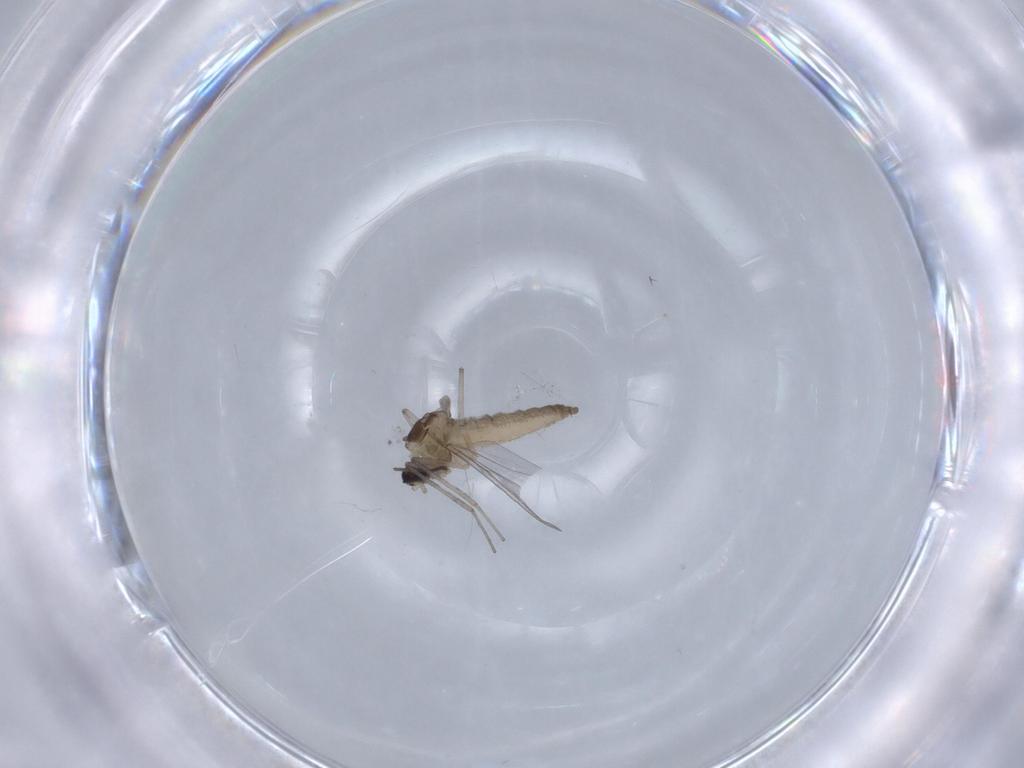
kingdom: Animalia
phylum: Arthropoda
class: Insecta
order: Diptera
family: Cecidomyiidae
